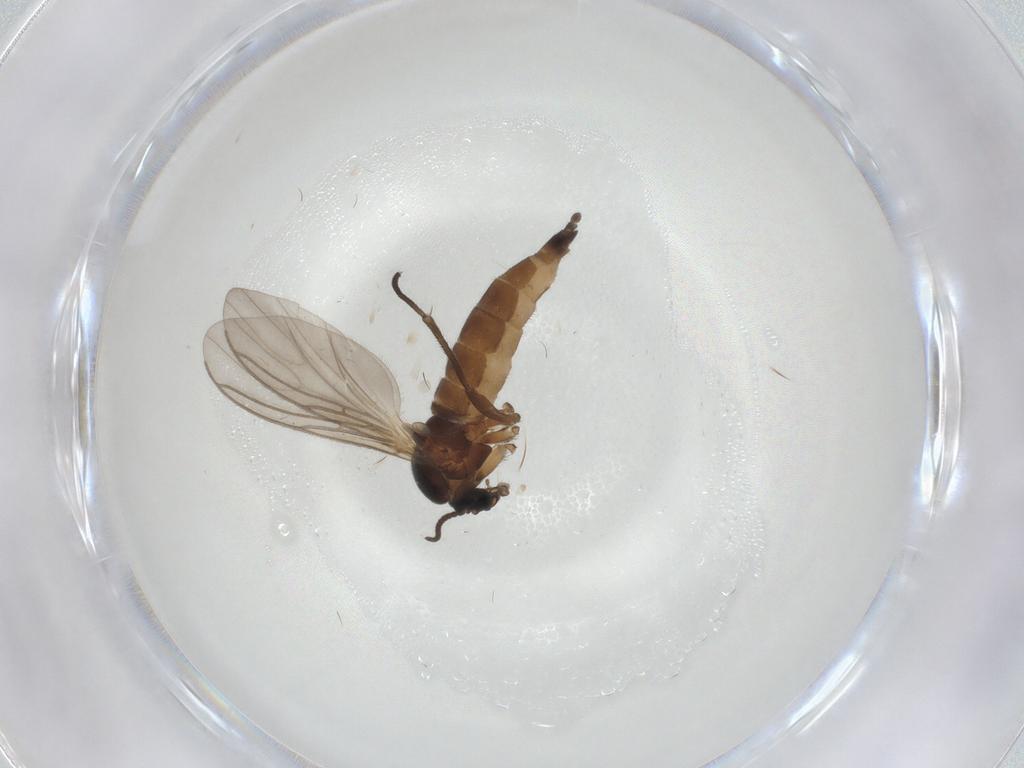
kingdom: Animalia
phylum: Arthropoda
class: Insecta
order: Diptera
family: Sciaridae
